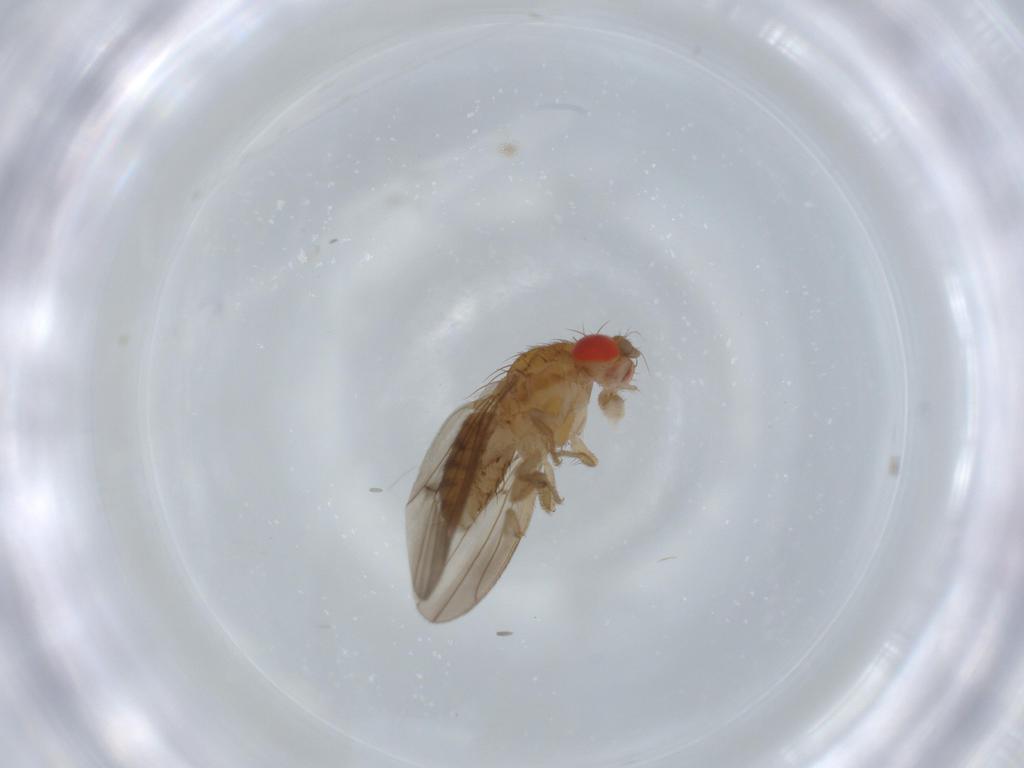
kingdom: Animalia
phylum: Arthropoda
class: Insecta
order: Diptera
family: Drosophilidae
